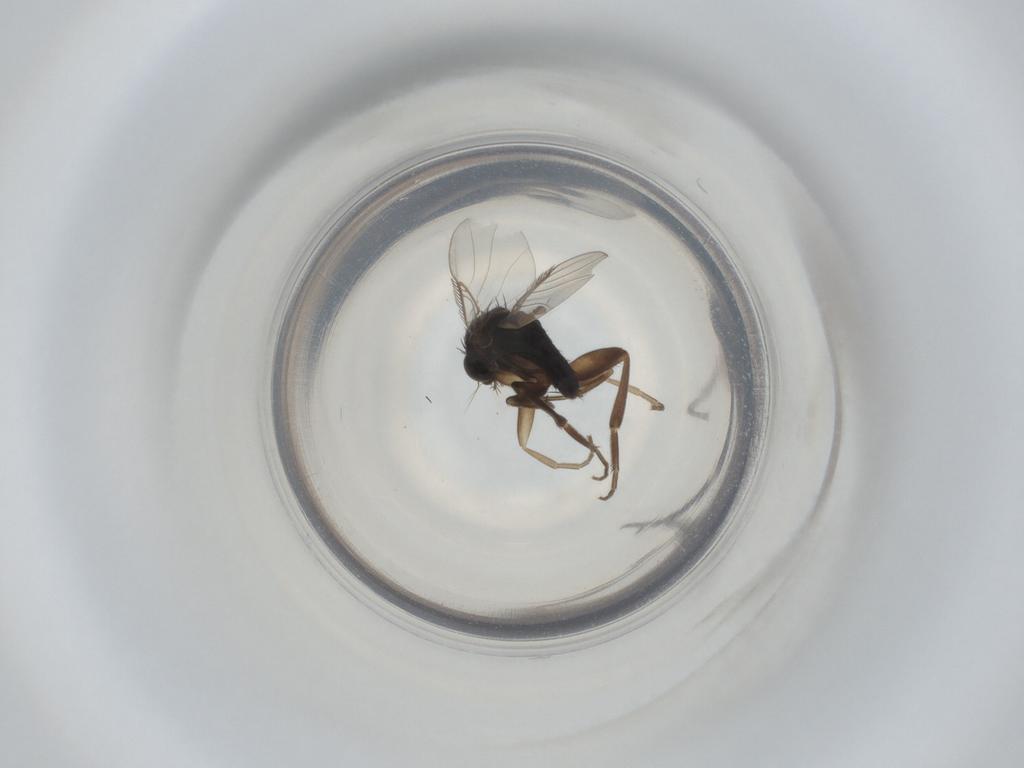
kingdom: Animalia
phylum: Arthropoda
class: Insecta
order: Diptera
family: Phoridae
